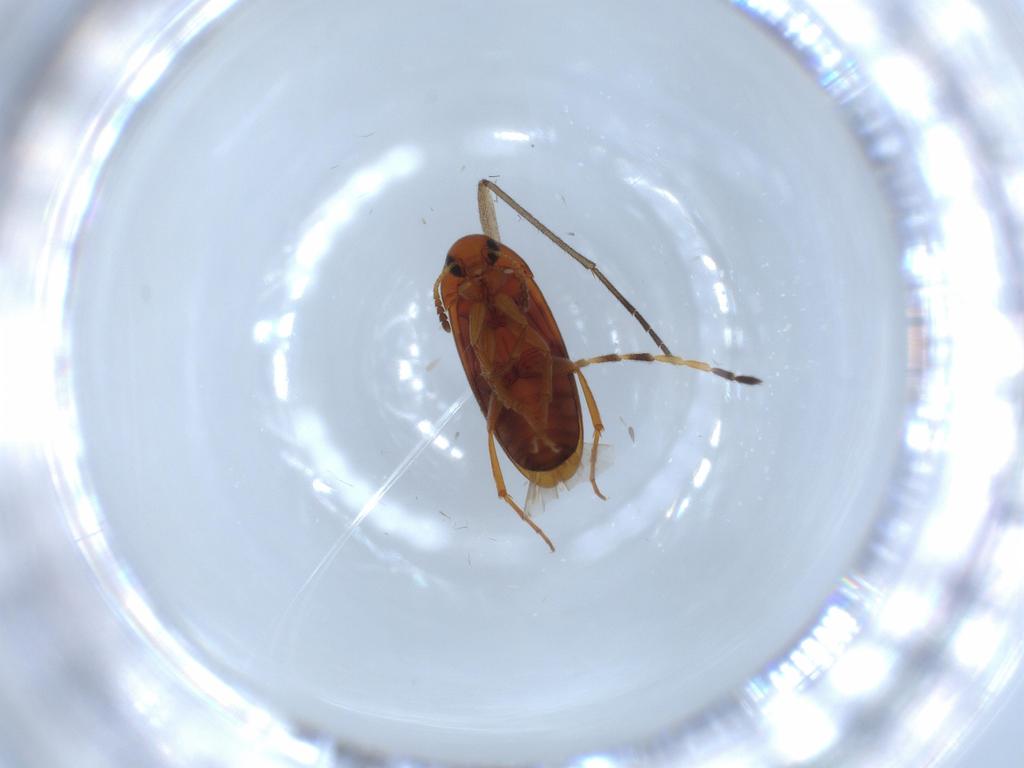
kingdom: Animalia
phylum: Arthropoda
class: Insecta
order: Coleoptera
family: Scraptiidae
